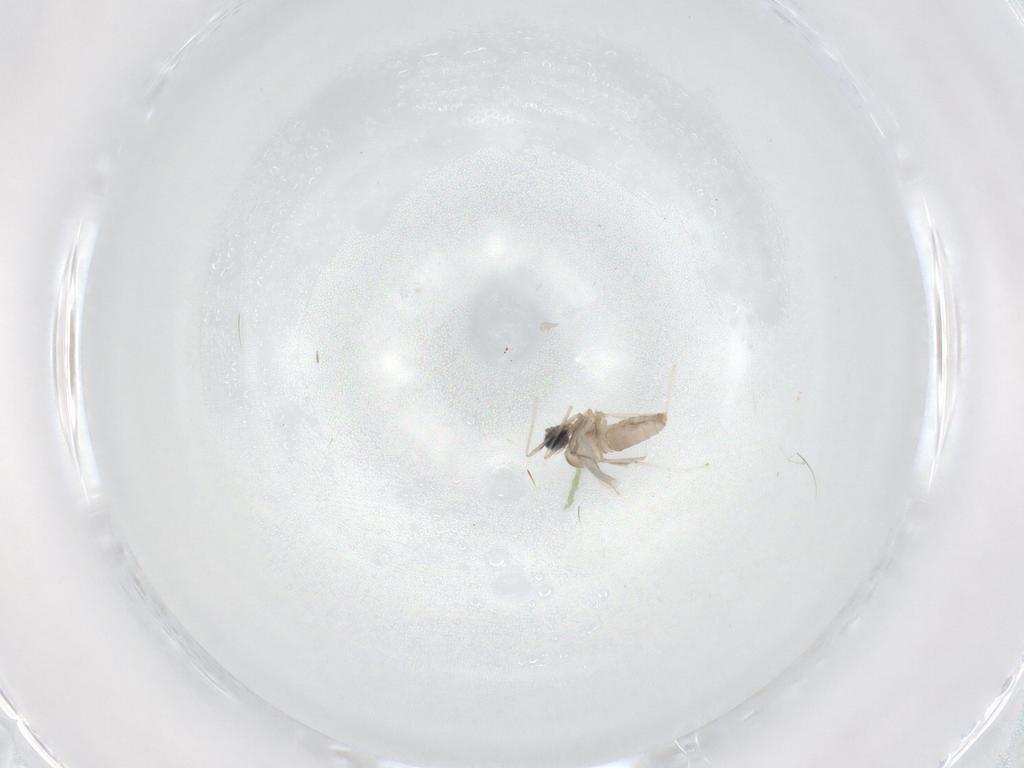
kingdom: Animalia
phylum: Arthropoda
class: Insecta
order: Diptera
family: Cecidomyiidae
